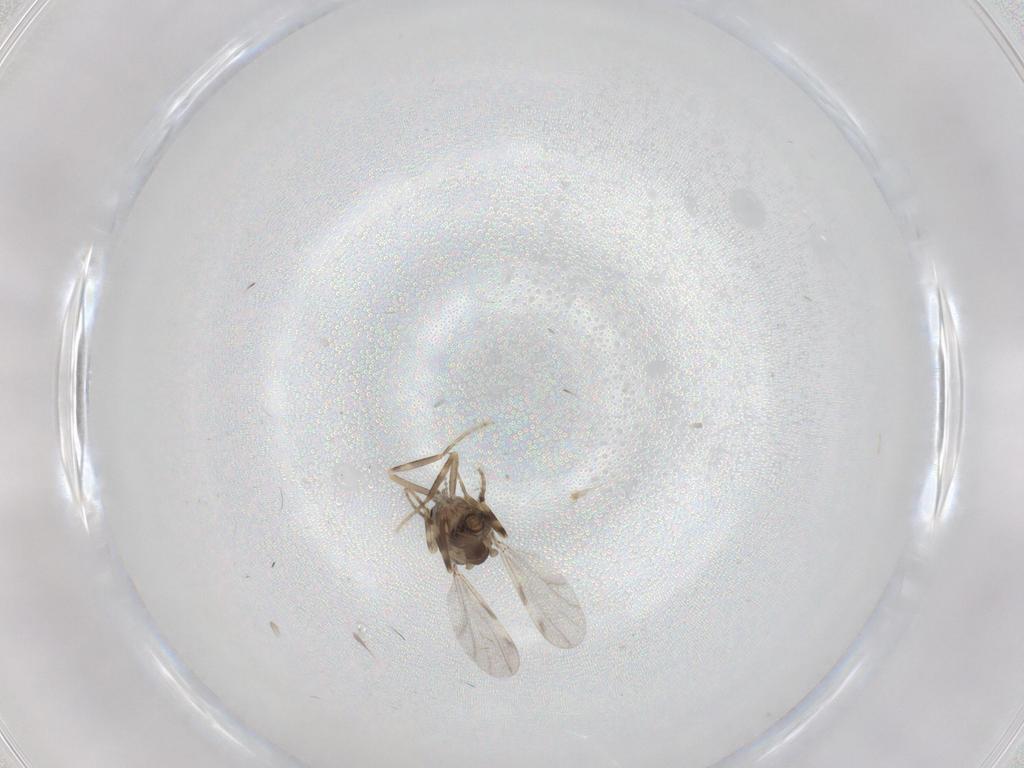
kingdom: Animalia
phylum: Arthropoda
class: Insecta
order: Diptera
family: Ceratopogonidae
